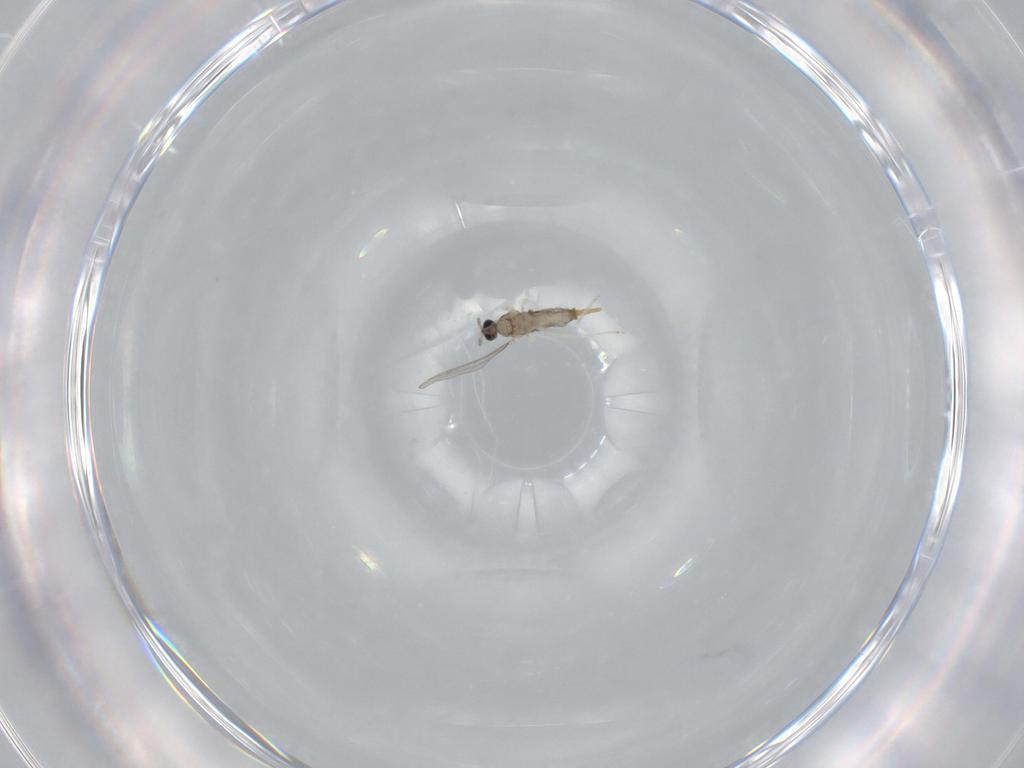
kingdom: Animalia
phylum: Arthropoda
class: Insecta
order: Diptera
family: Cecidomyiidae
